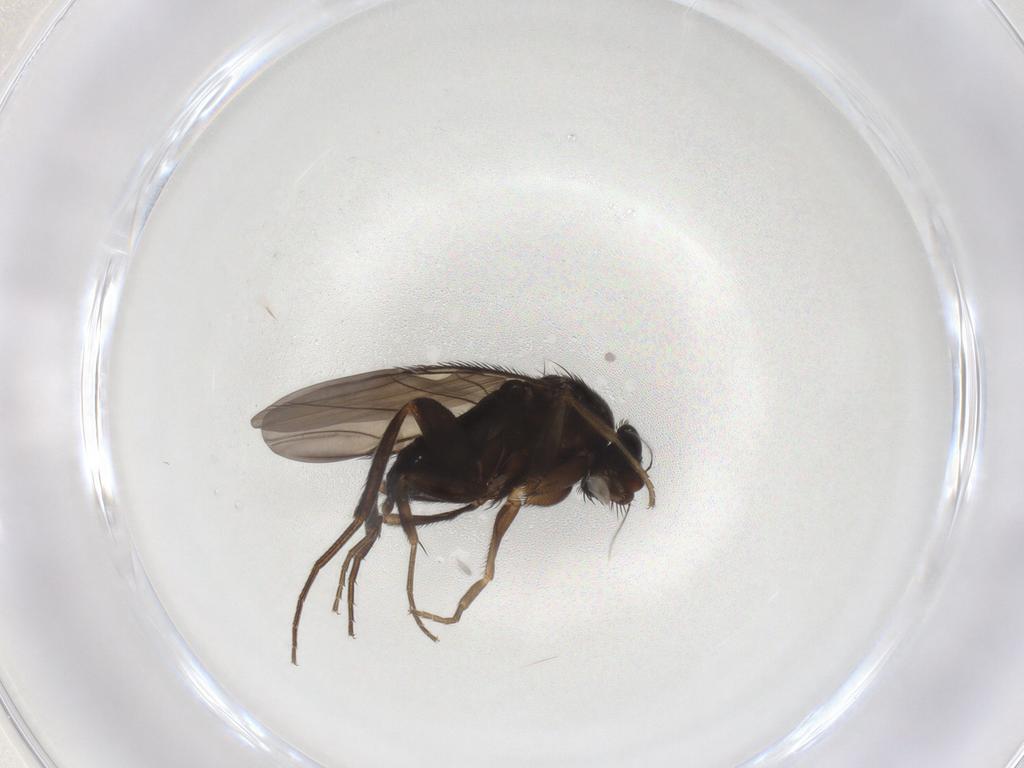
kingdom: Animalia
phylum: Arthropoda
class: Insecta
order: Diptera
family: Phoridae
